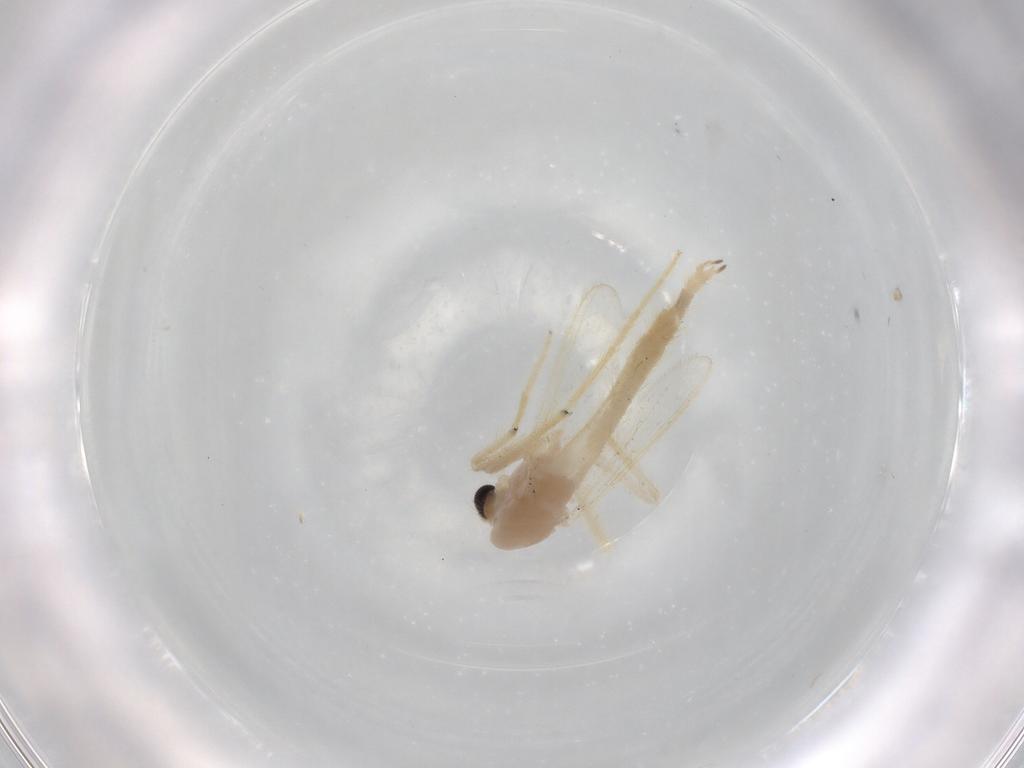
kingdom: Animalia
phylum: Arthropoda
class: Insecta
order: Diptera
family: Chironomidae
